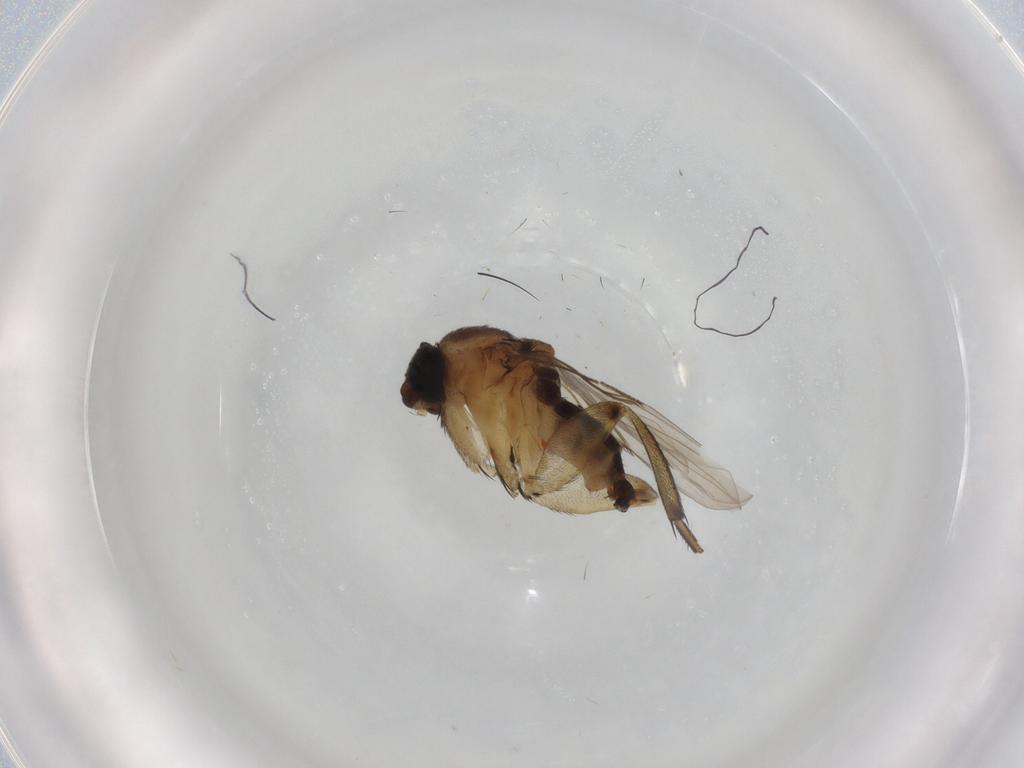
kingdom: Animalia
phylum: Arthropoda
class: Insecta
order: Diptera
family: Phoridae
